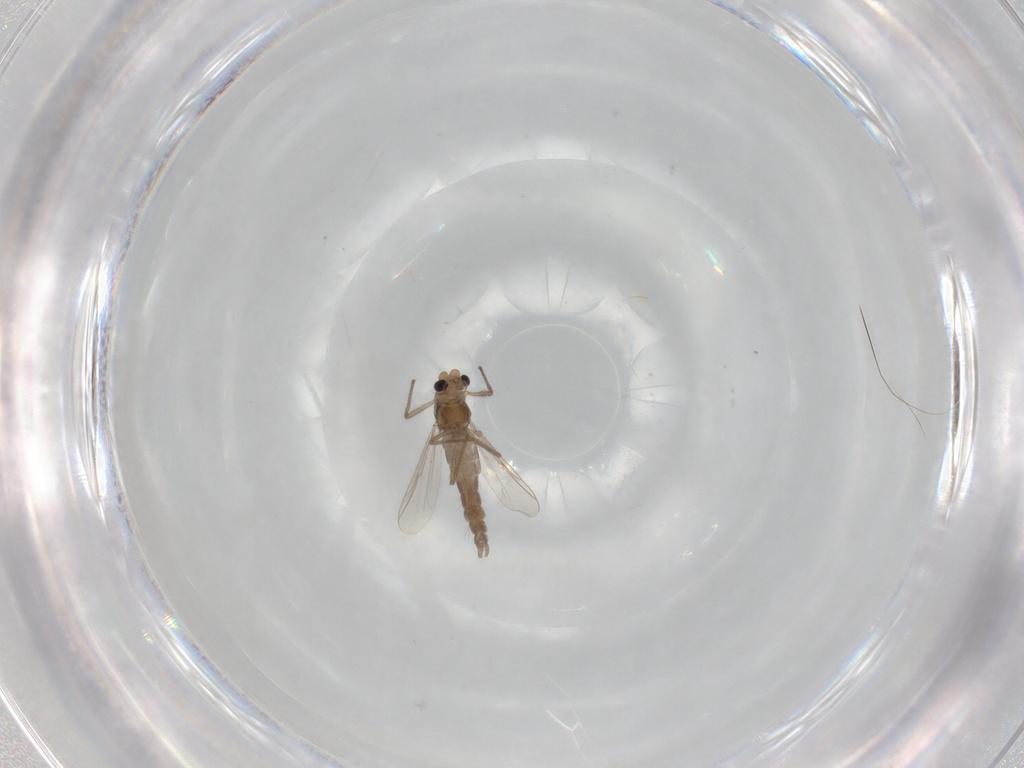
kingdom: Animalia
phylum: Arthropoda
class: Insecta
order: Diptera
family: Chironomidae
